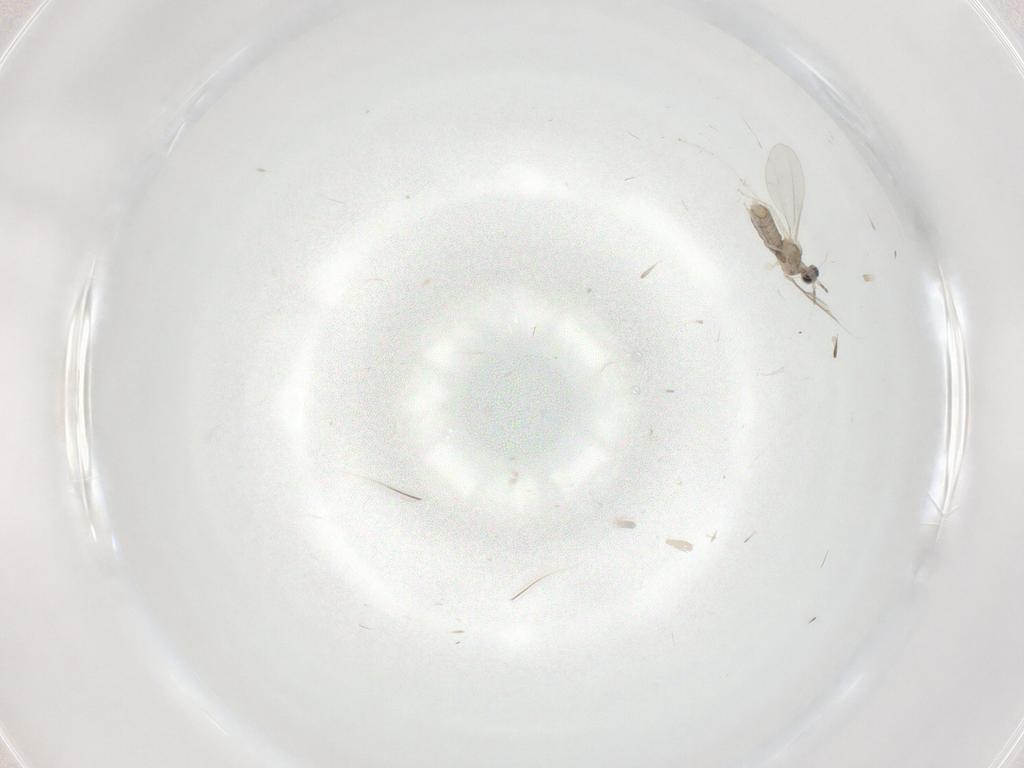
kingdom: Animalia
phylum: Arthropoda
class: Insecta
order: Diptera
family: Cecidomyiidae
